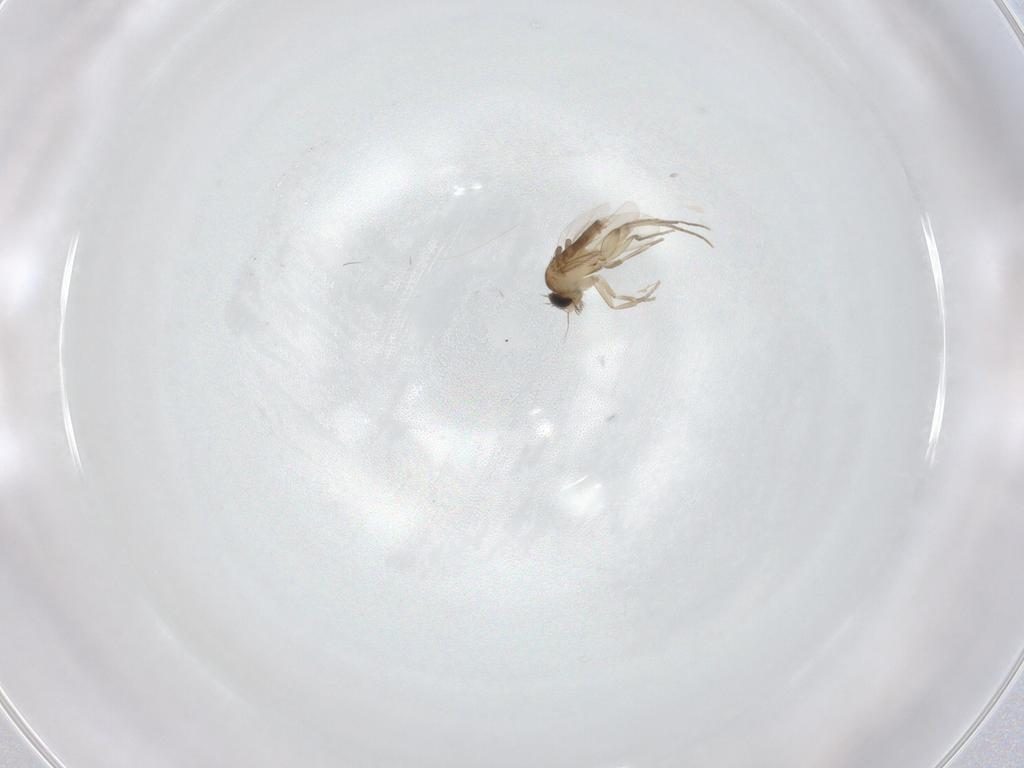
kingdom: Animalia
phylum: Arthropoda
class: Insecta
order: Diptera
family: Phoridae
